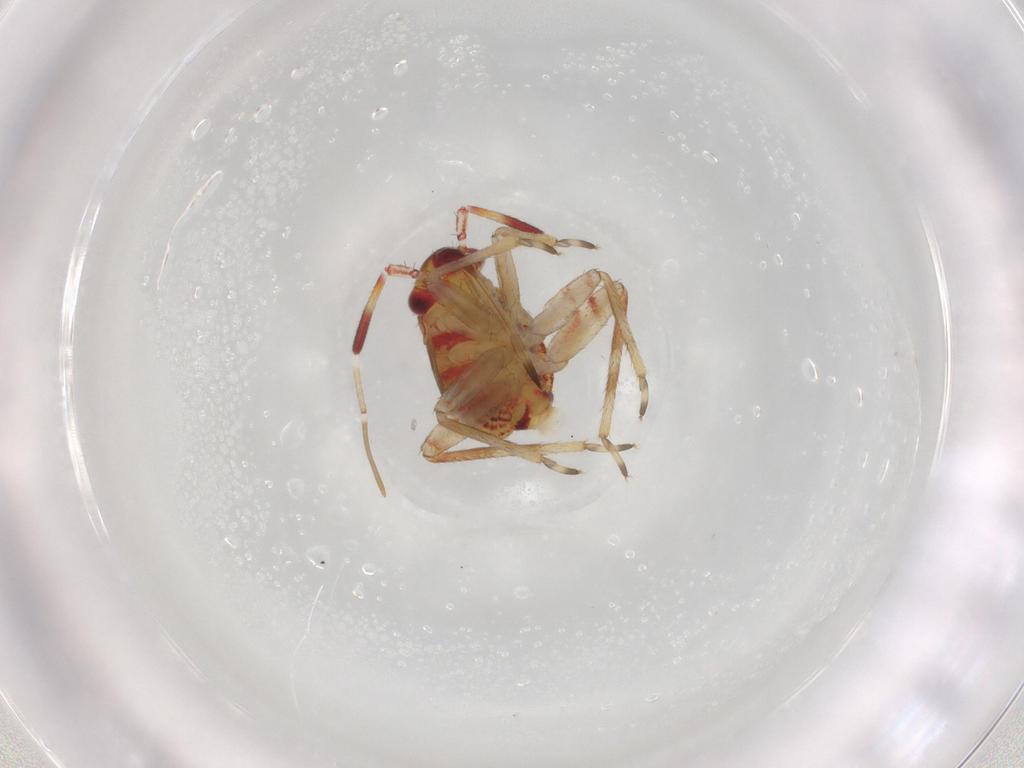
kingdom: Animalia
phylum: Arthropoda
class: Insecta
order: Hemiptera
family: Miridae
